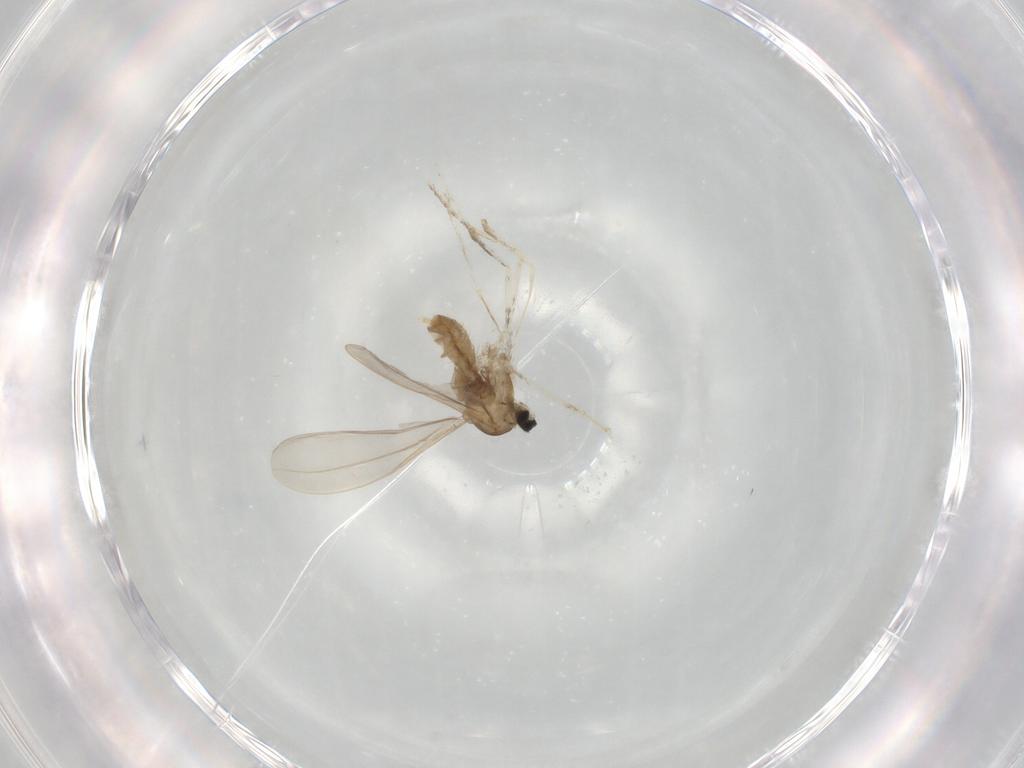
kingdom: Animalia
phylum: Arthropoda
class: Insecta
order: Diptera
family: Cecidomyiidae
